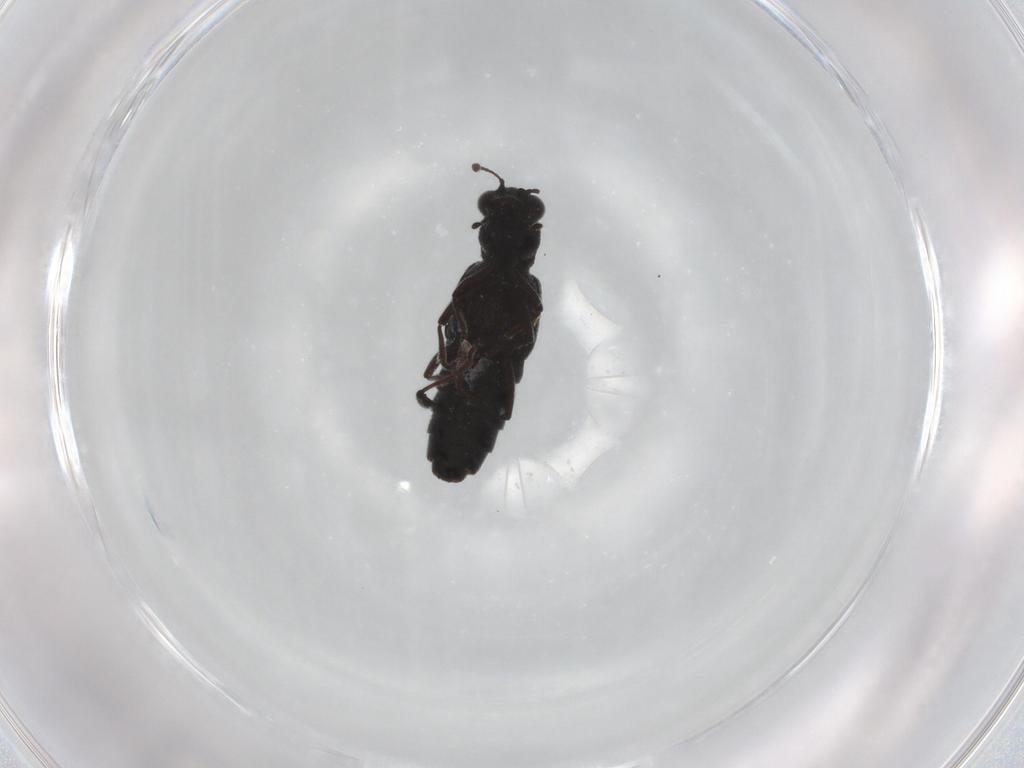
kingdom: Animalia
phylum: Arthropoda
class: Insecta
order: Coleoptera
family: Staphylinidae
